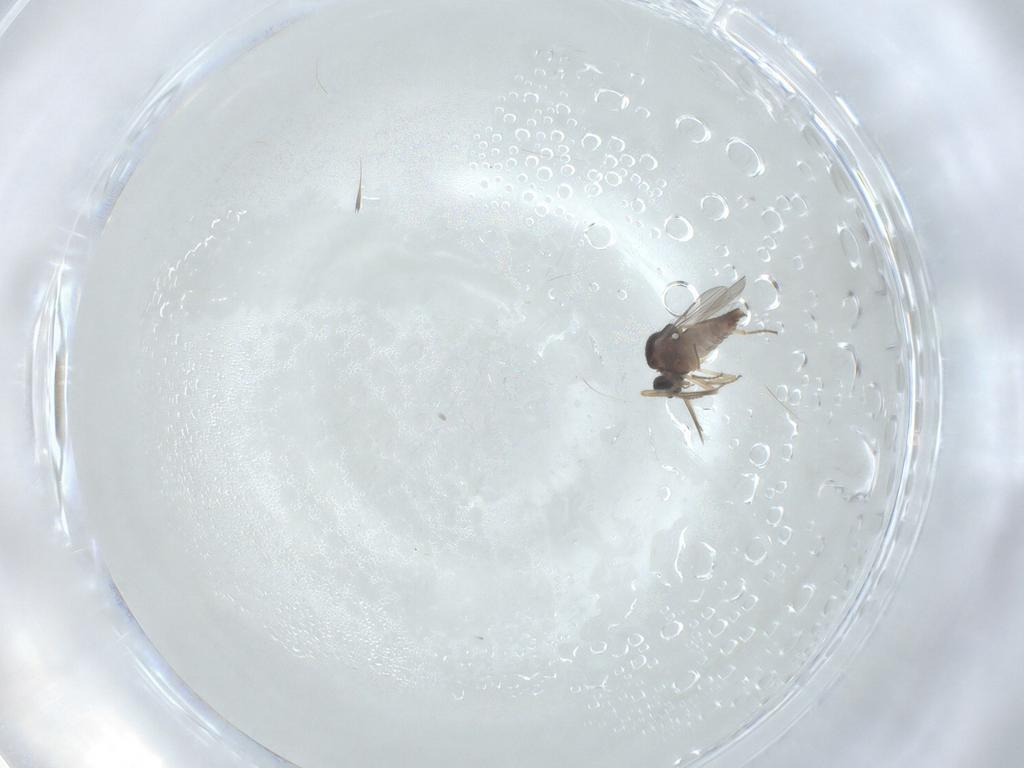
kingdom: Animalia
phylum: Arthropoda
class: Insecta
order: Diptera
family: Ceratopogonidae
